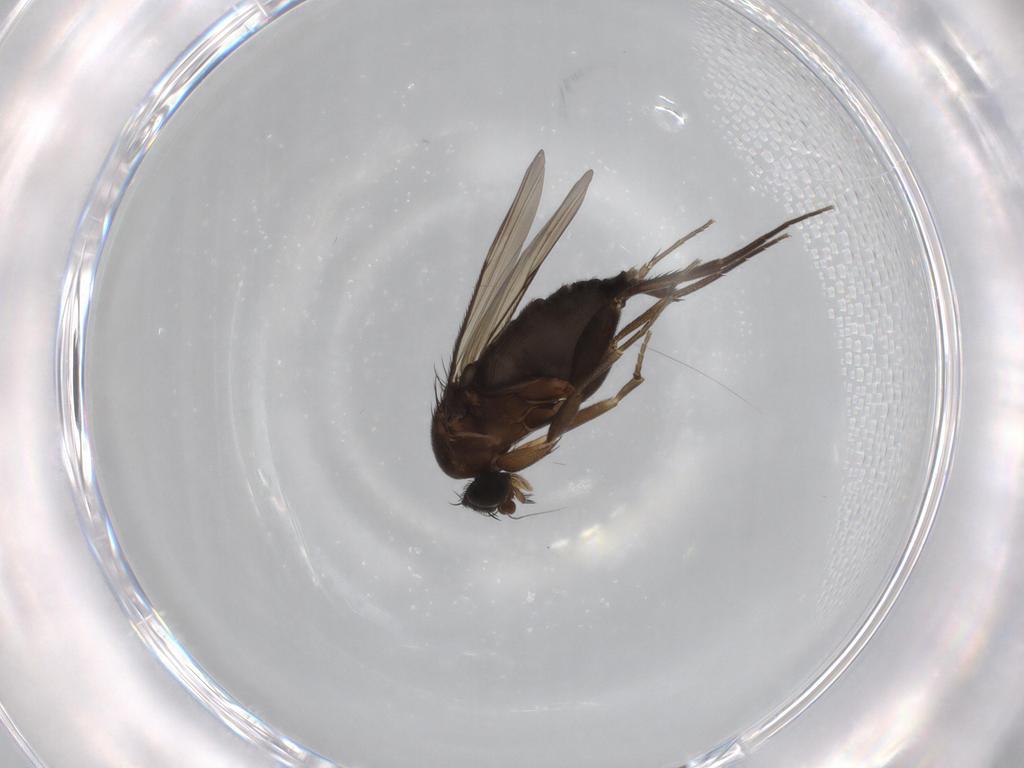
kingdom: Animalia
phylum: Arthropoda
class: Insecta
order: Diptera
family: Phoridae
